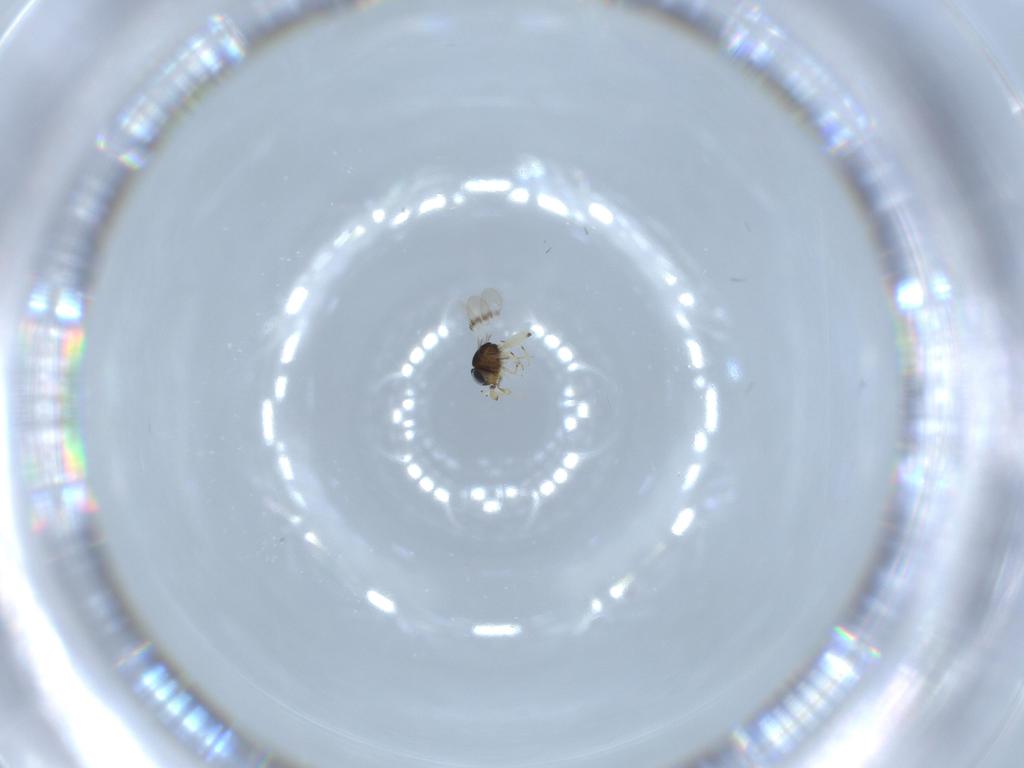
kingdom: Animalia
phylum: Arthropoda
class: Insecta
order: Hymenoptera
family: Scelionidae
